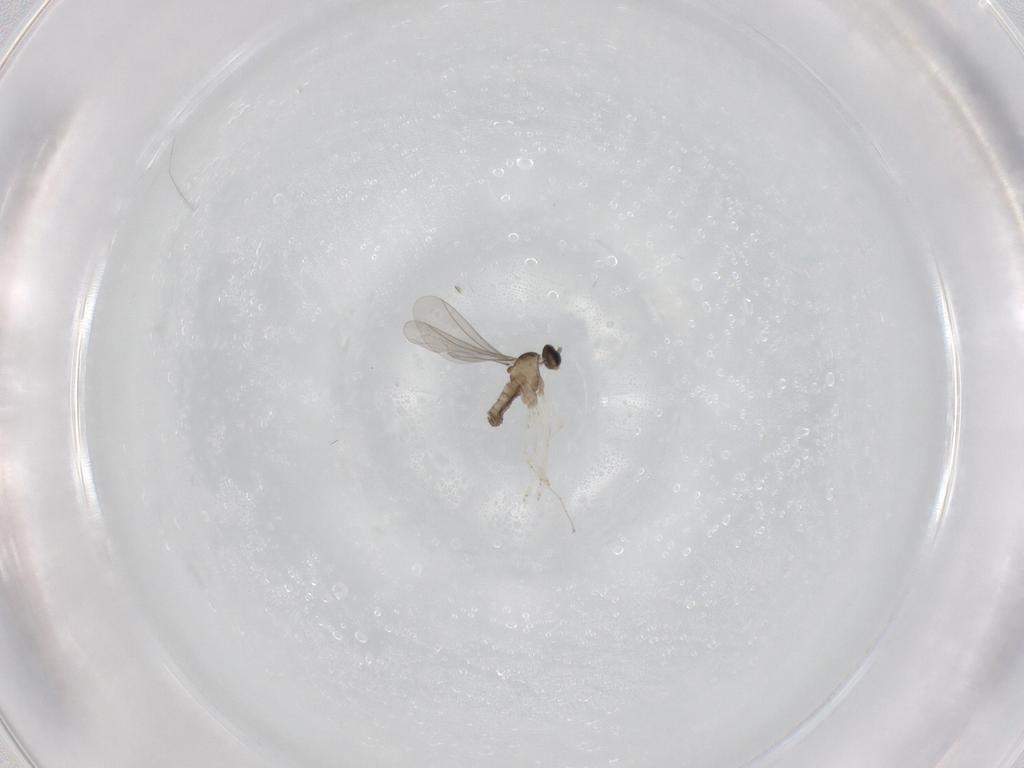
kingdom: Animalia
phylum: Arthropoda
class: Insecta
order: Diptera
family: Cecidomyiidae
